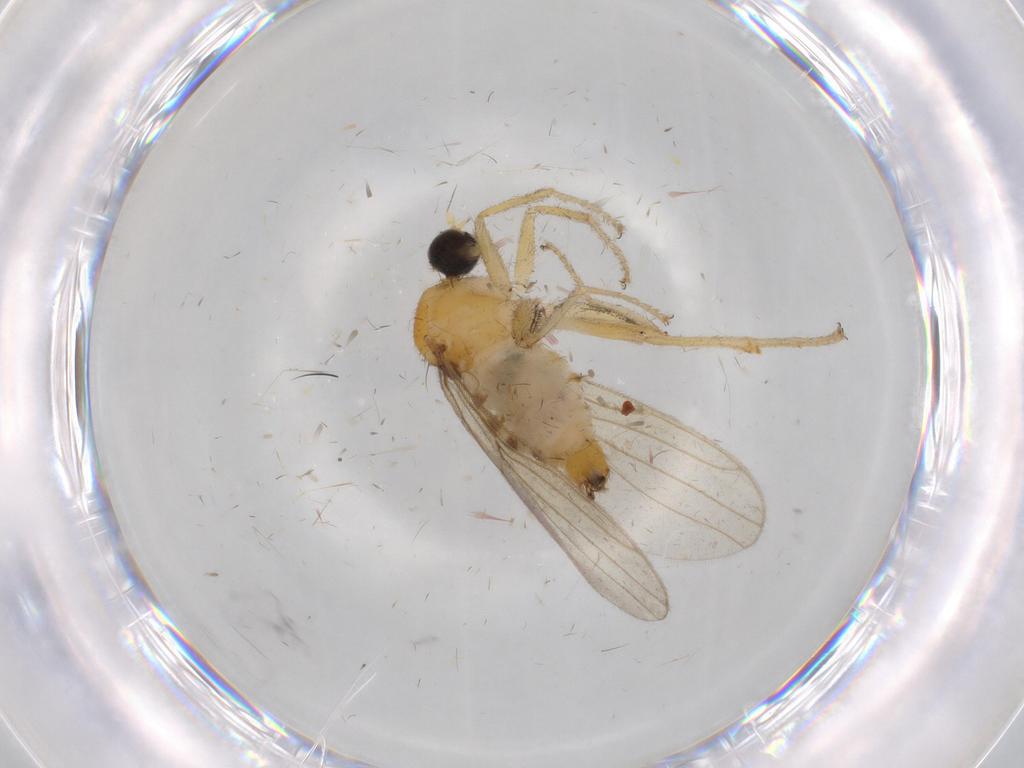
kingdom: Animalia
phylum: Arthropoda
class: Insecta
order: Diptera
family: Hybotidae
